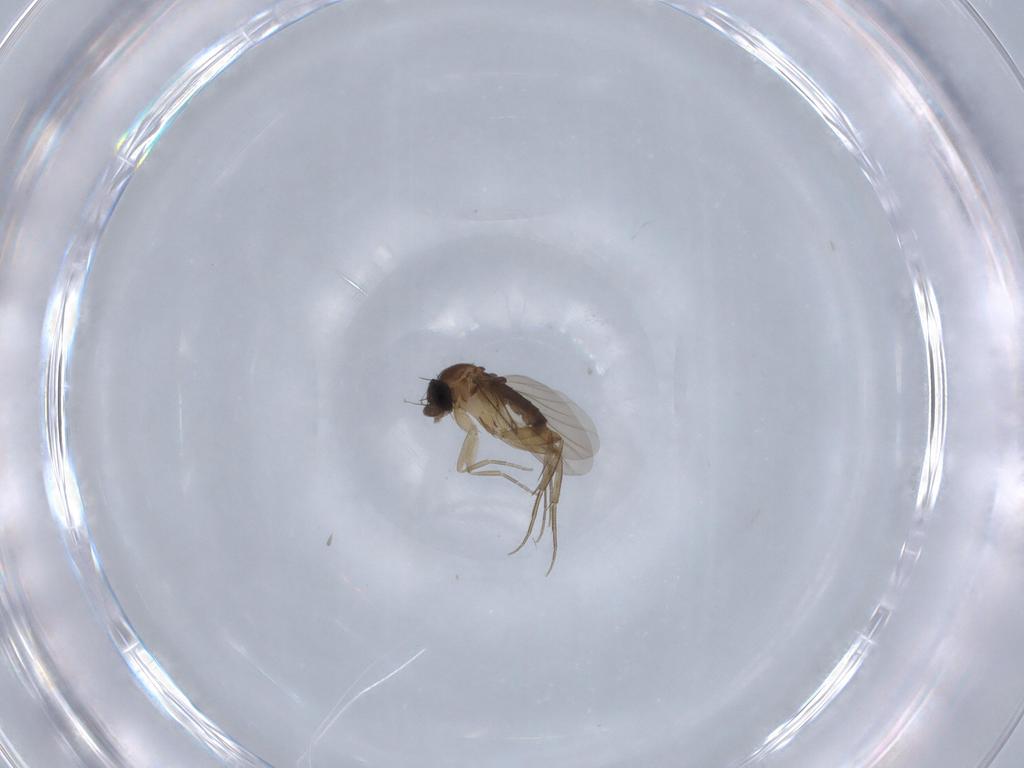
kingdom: Animalia
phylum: Arthropoda
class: Insecta
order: Diptera
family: Phoridae
